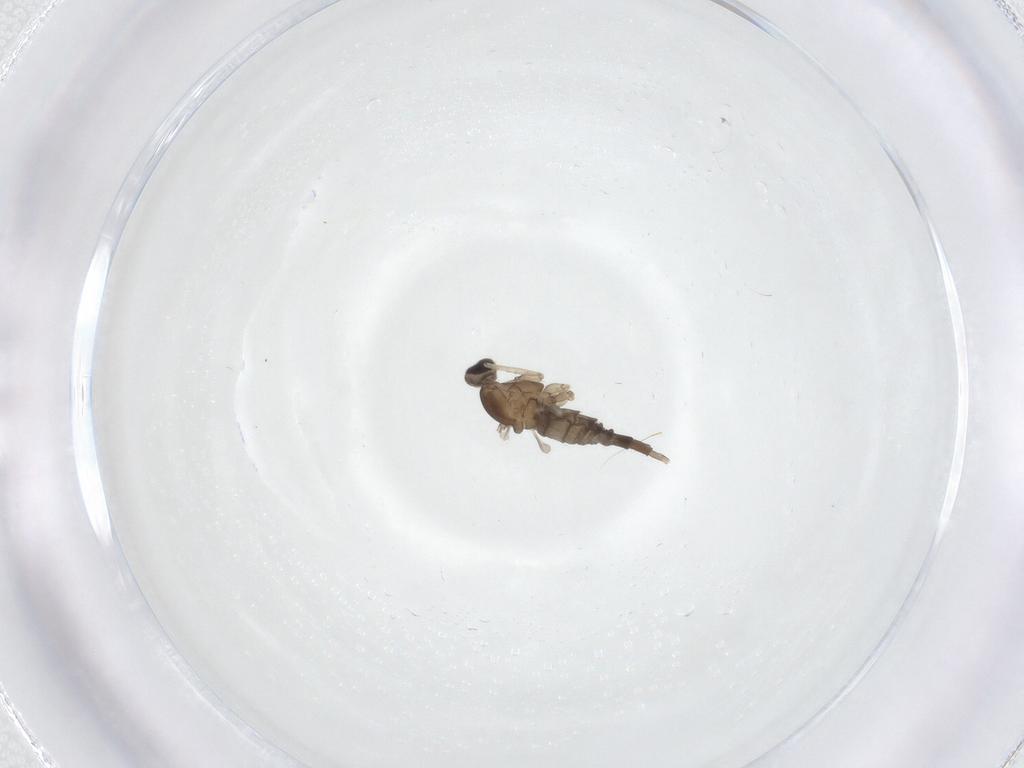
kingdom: Animalia
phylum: Arthropoda
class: Insecta
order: Diptera
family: Cecidomyiidae
